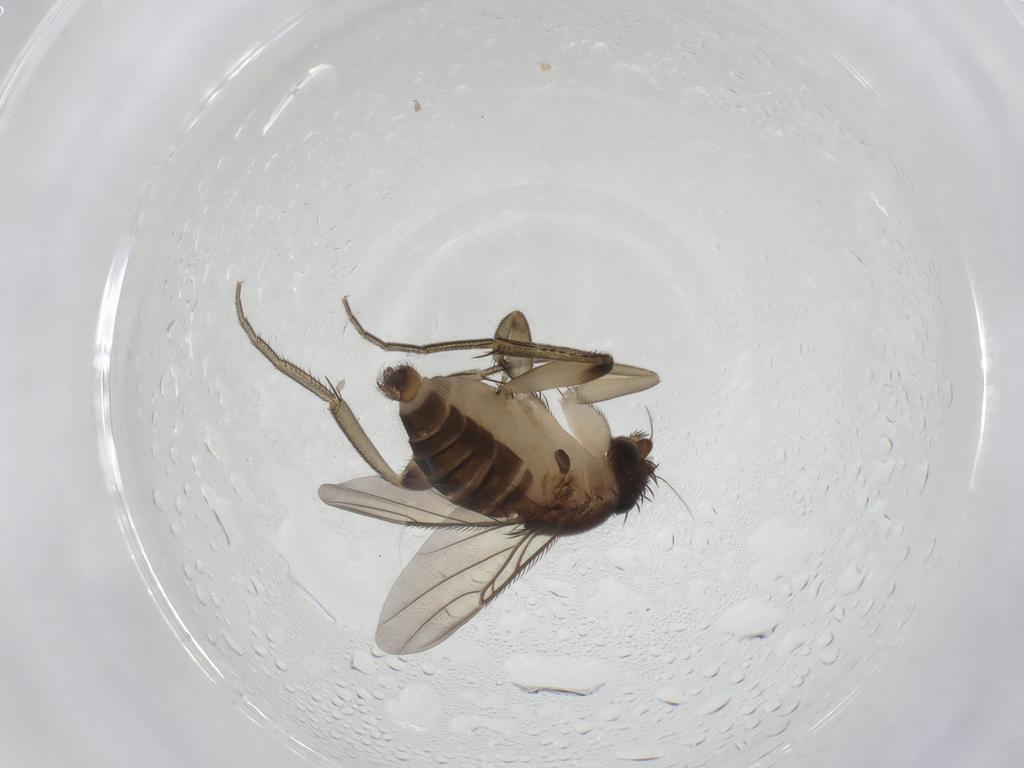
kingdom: Animalia
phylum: Arthropoda
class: Insecta
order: Diptera
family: Phoridae
